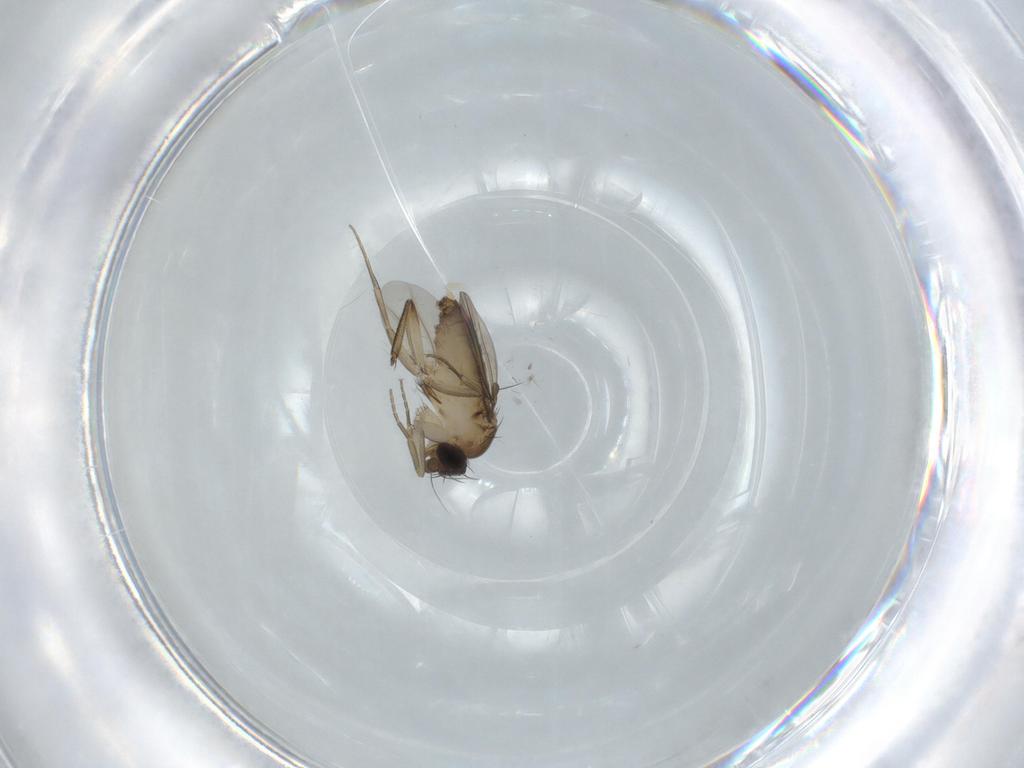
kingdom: Animalia
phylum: Arthropoda
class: Insecta
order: Diptera
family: Phoridae
